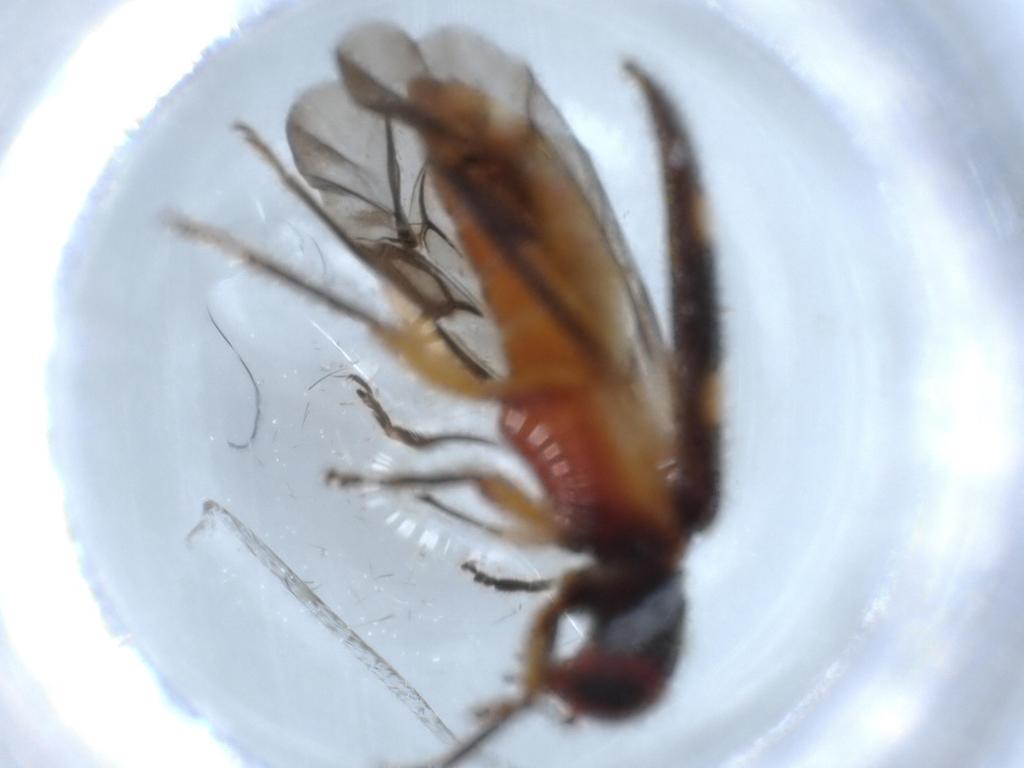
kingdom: Animalia
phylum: Arthropoda
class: Insecta
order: Coleoptera
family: Cleridae
